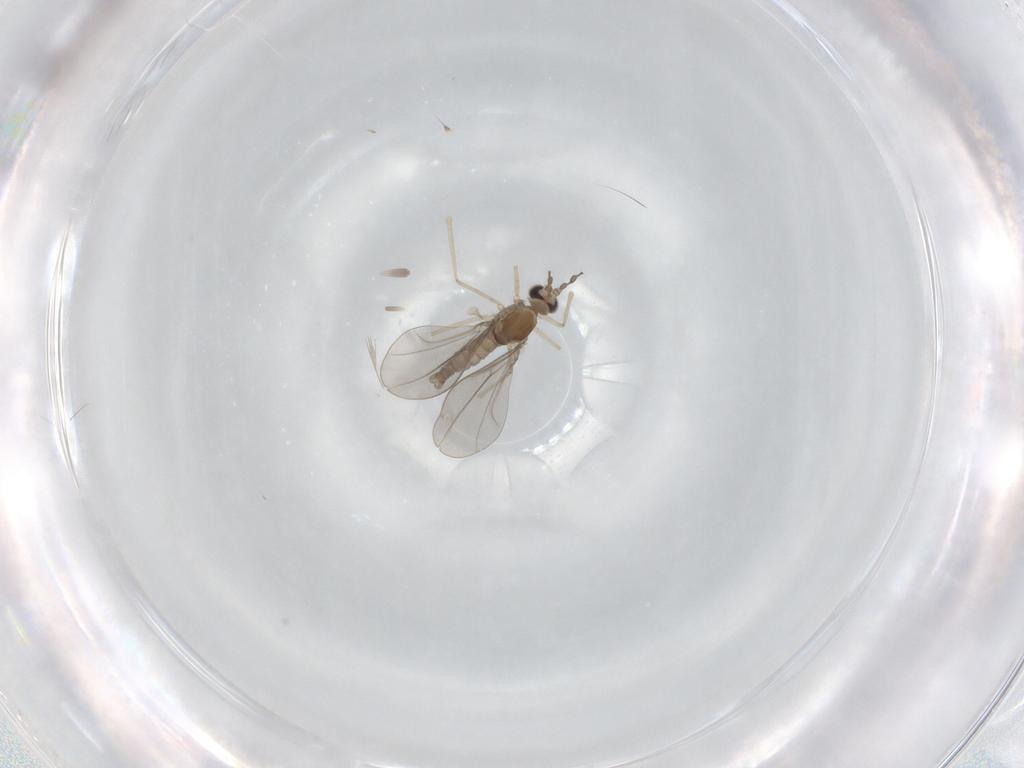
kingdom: Animalia
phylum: Arthropoda
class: Insecta
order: Diptera
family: Cecidomyiidae
